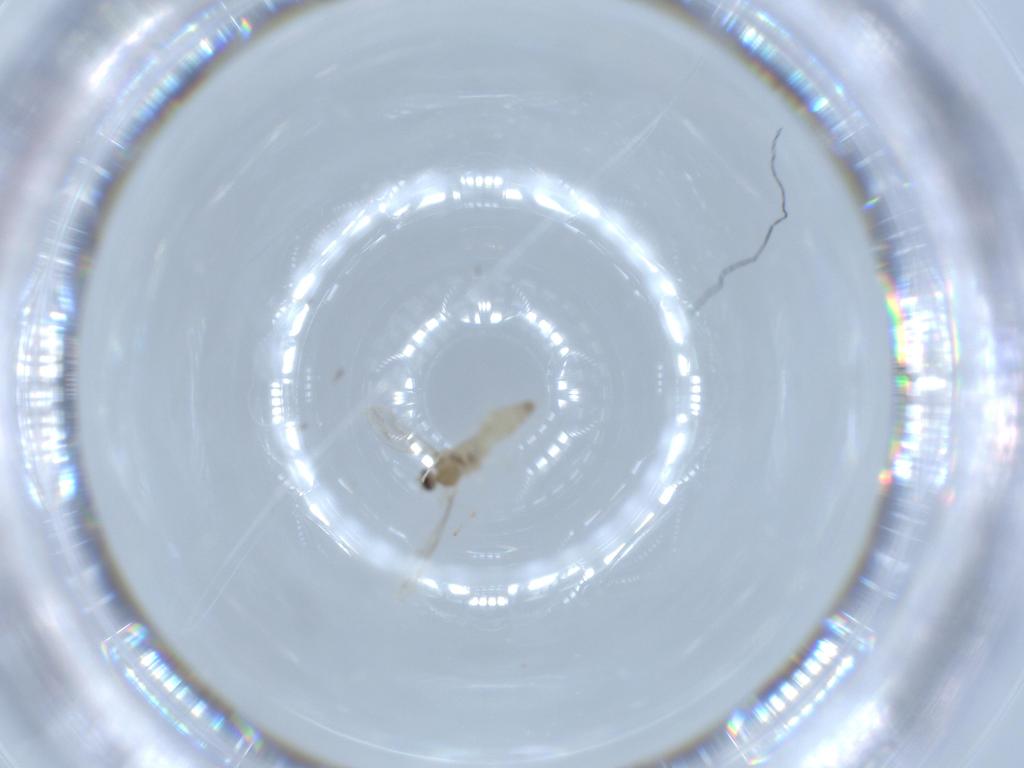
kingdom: Animalia
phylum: Arthropoda
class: Insecta
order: Diptera
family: Cecidomyiidae
